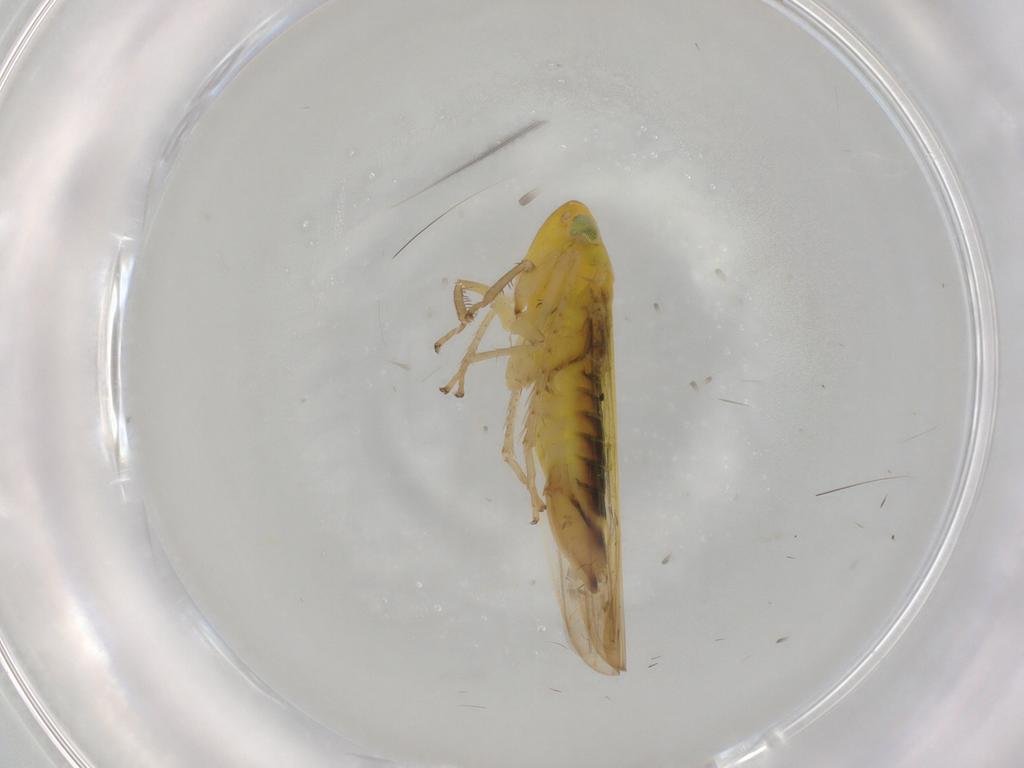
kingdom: Animalia
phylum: Arthropoda
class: Insecta
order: Hemiptera
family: Cicadellidae
